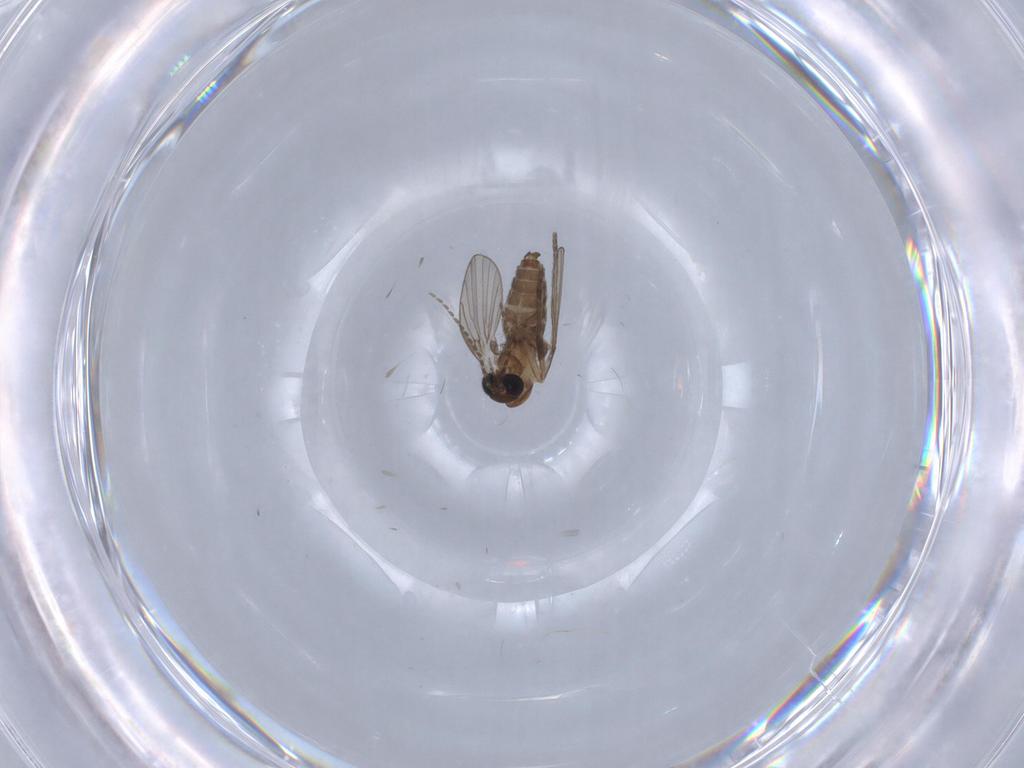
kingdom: Animalia
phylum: Arthropoda
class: Insecta
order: Diptera
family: Psychodidae
